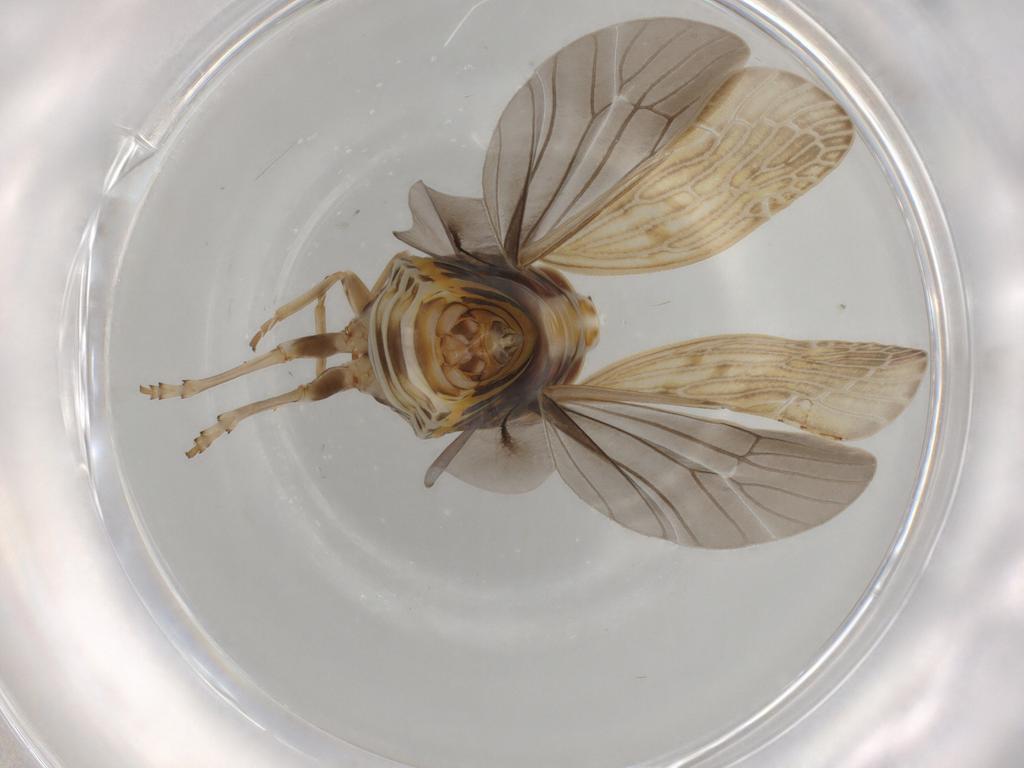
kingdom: Animalia
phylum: Arthropoda
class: Insecta
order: Hemiptera
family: Achilidae
